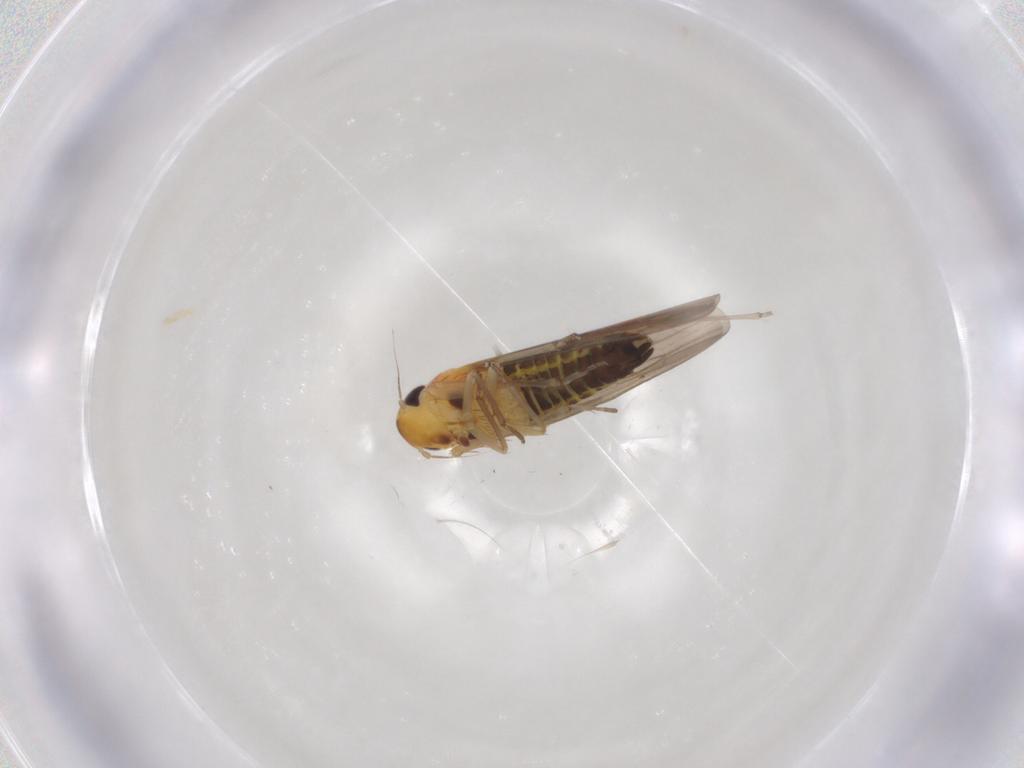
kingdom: Animalia
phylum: Arthropoda
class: Insecta
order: Hemiptera
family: Cicadellidae
